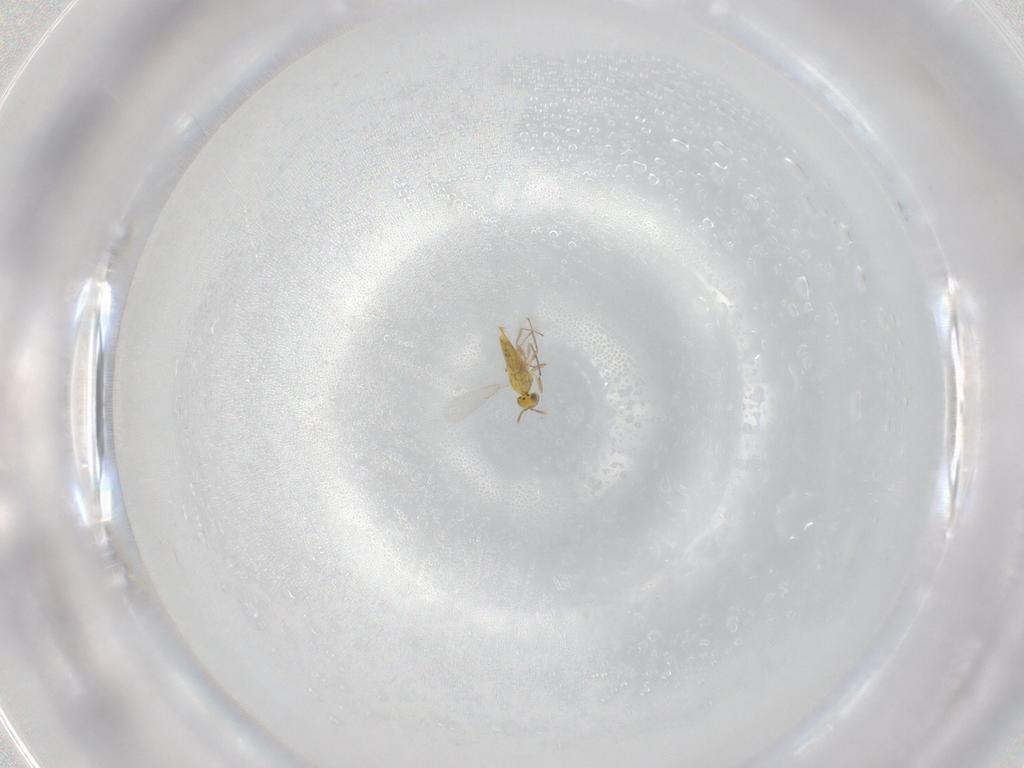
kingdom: Animalia
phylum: Arthropoda
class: Insecta
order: Hymenoptera
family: Aphelinidae
